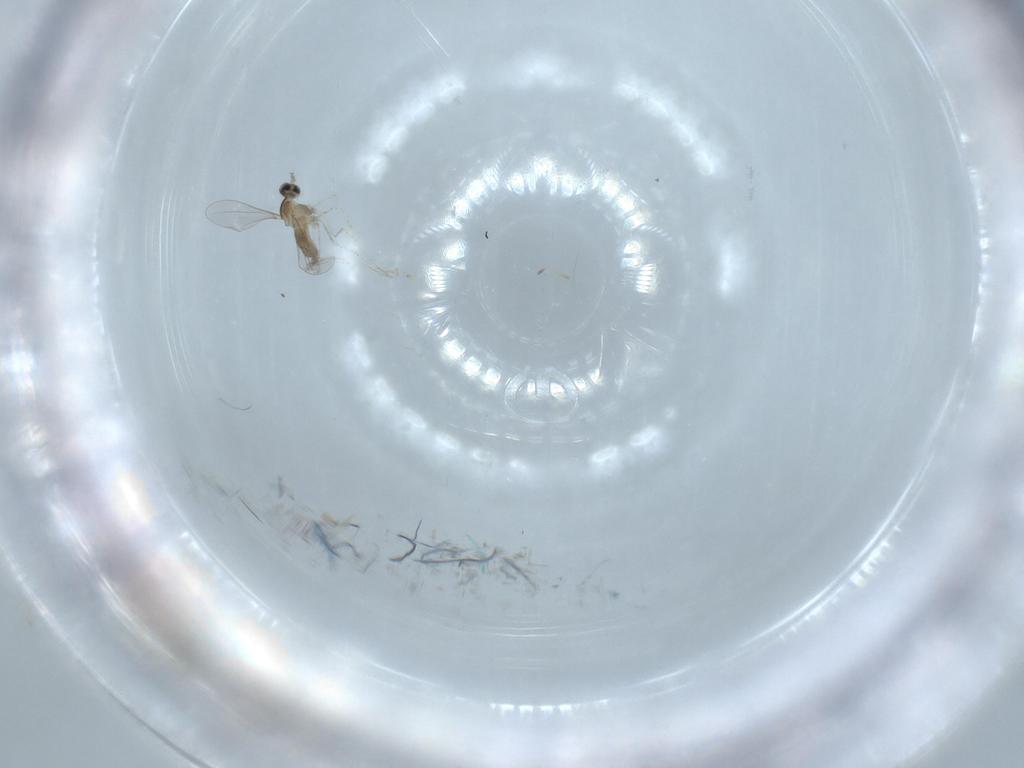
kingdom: Animalia
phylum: Arthropoda
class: Insecta
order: Diptera
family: Cecidomyiidae
